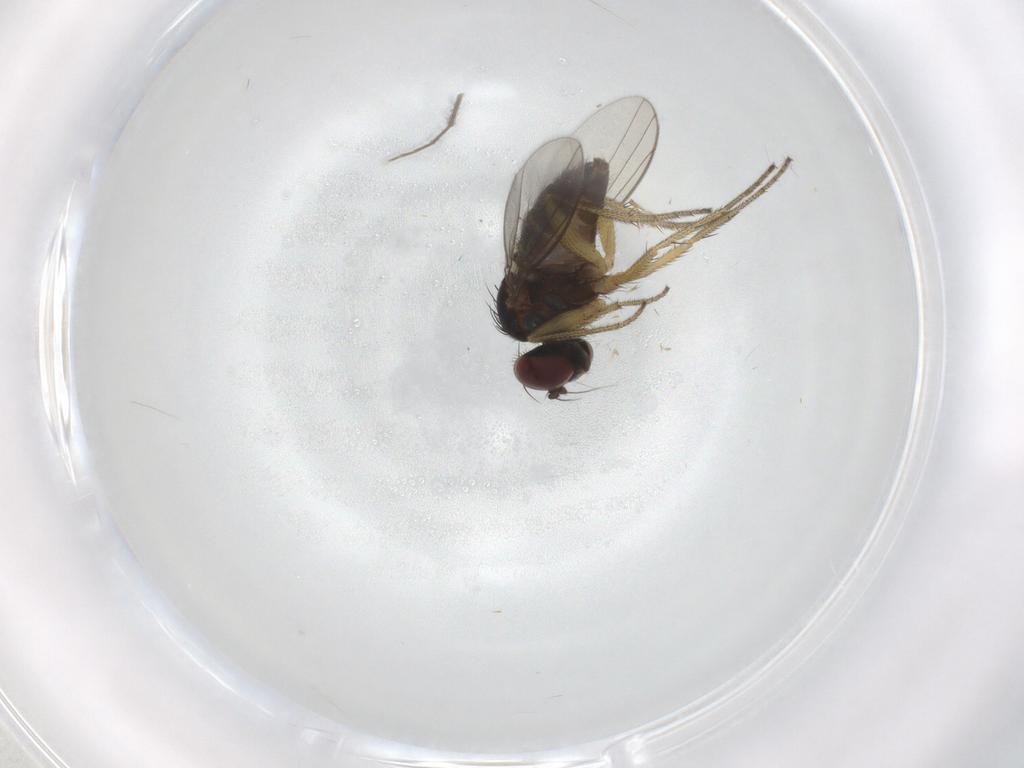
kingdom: Animalia
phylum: Arthropoda
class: Insecta
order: Diptera
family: Chironomidae
